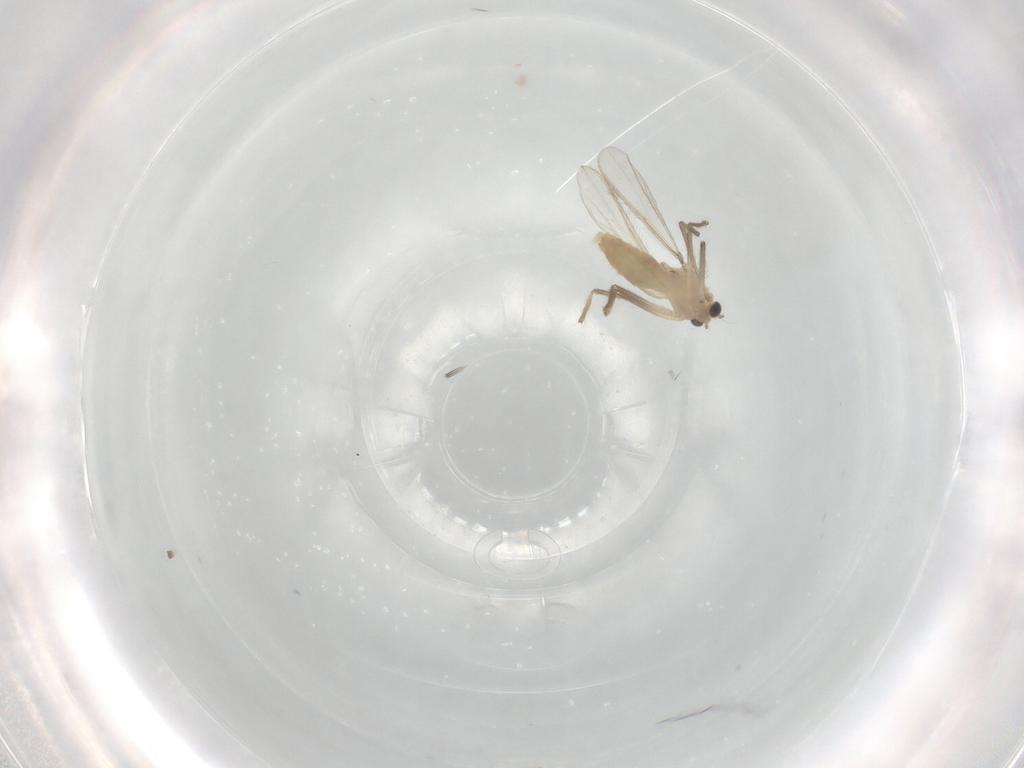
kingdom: Animalia
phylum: Arthropoda
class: Insecta
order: Diptera
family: Chironomidae
